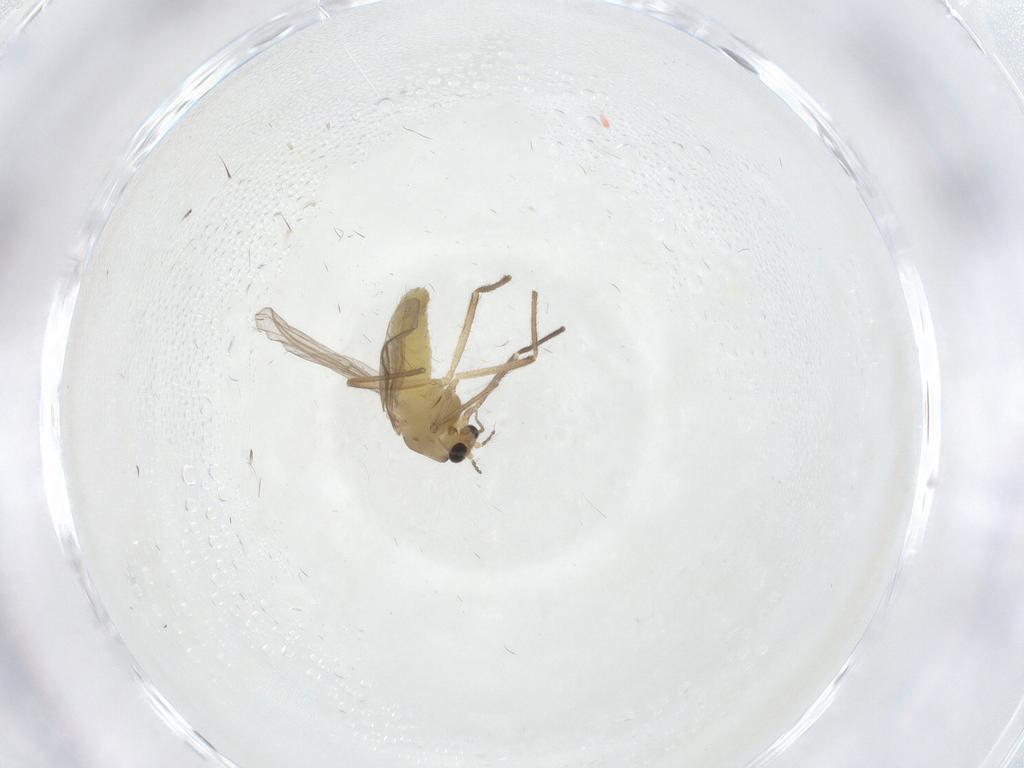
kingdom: Animalia
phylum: Arthropoda
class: Insecta
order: Diptera
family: Chironomidae
